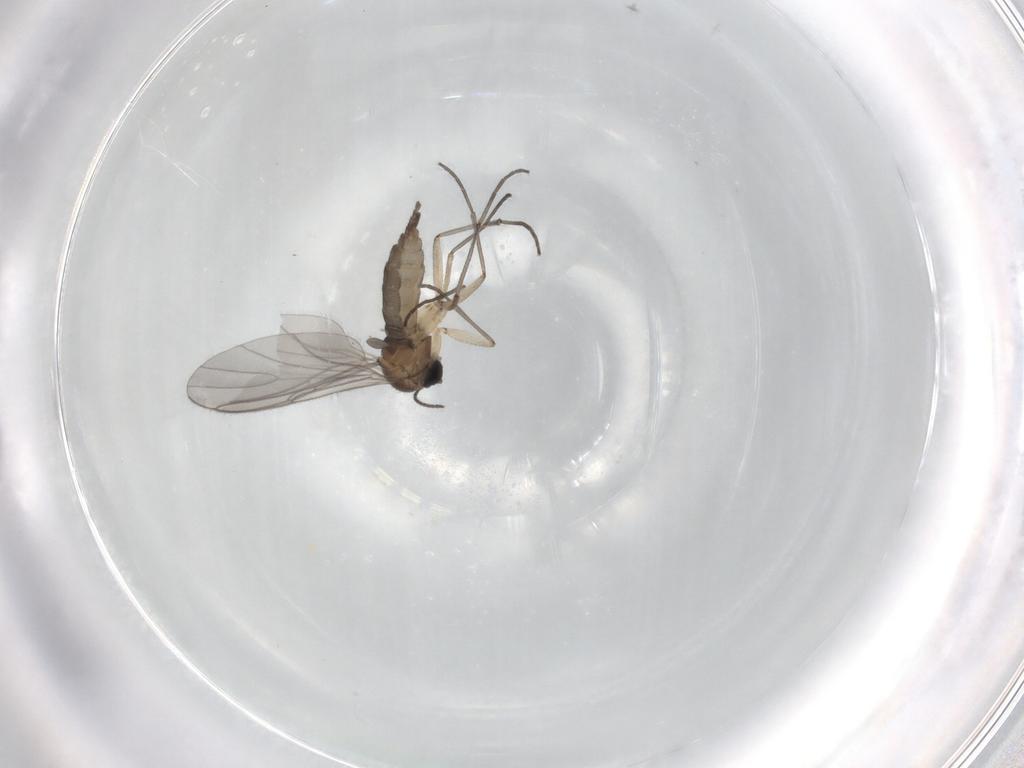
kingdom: Animalia
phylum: Arthropoda
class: Insecta
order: Diptera
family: Sciaridae
